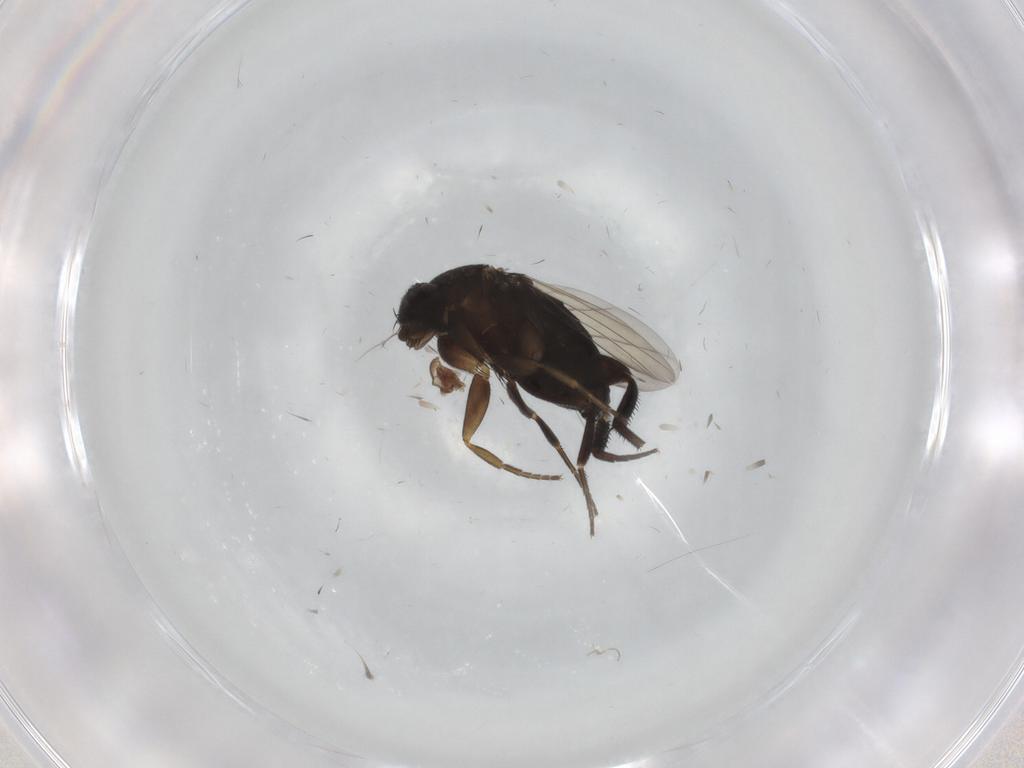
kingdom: Animalia
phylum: Arthropoda
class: Insecta
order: Diptera
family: Phoridae
